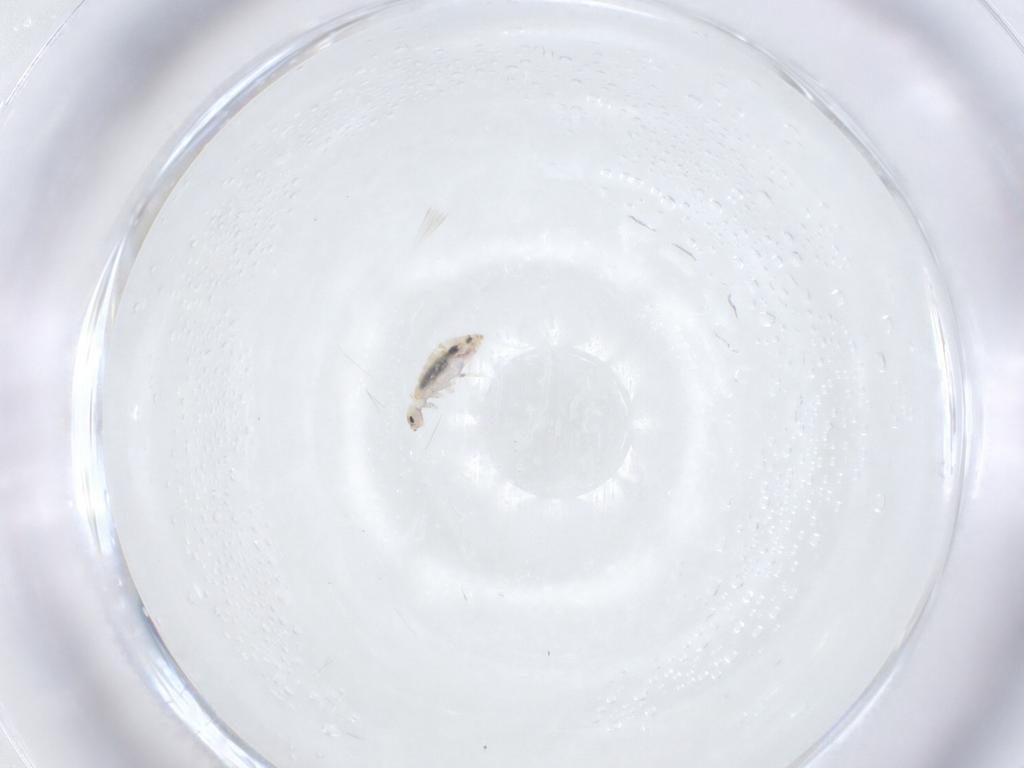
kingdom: Animalia
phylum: Arthropoda
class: Collembola
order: Entomobryomorpha
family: Entomobryidae
